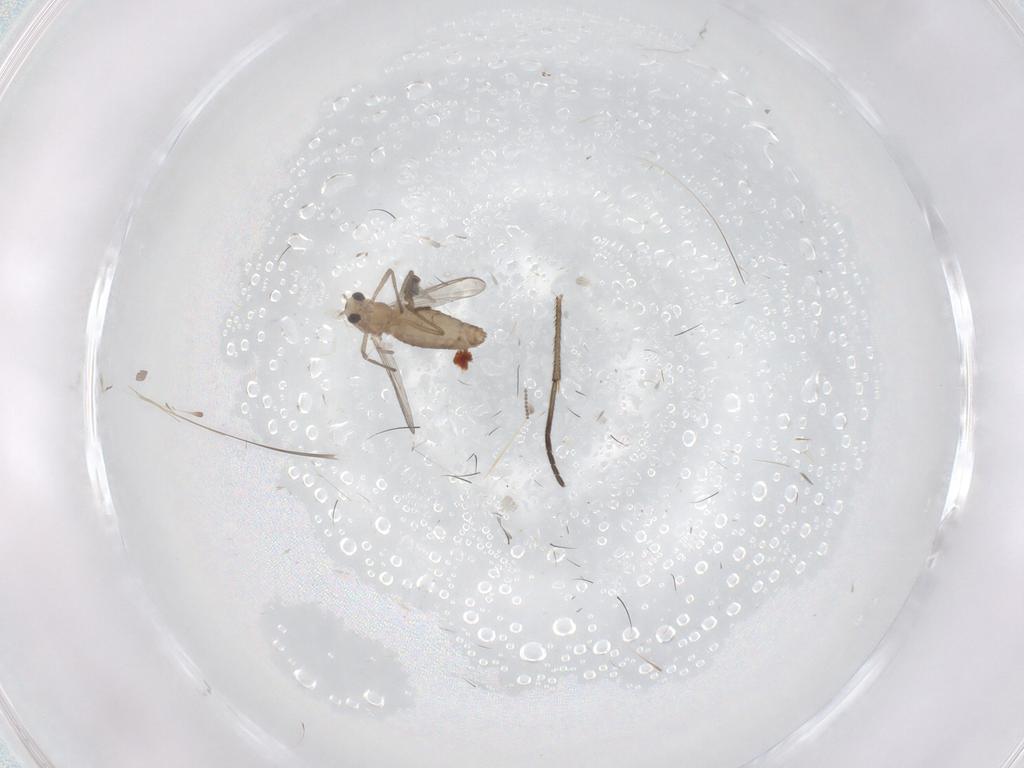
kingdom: Animalia
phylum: Arthropoda
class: Insecta
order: Diptera
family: Chironomidae
